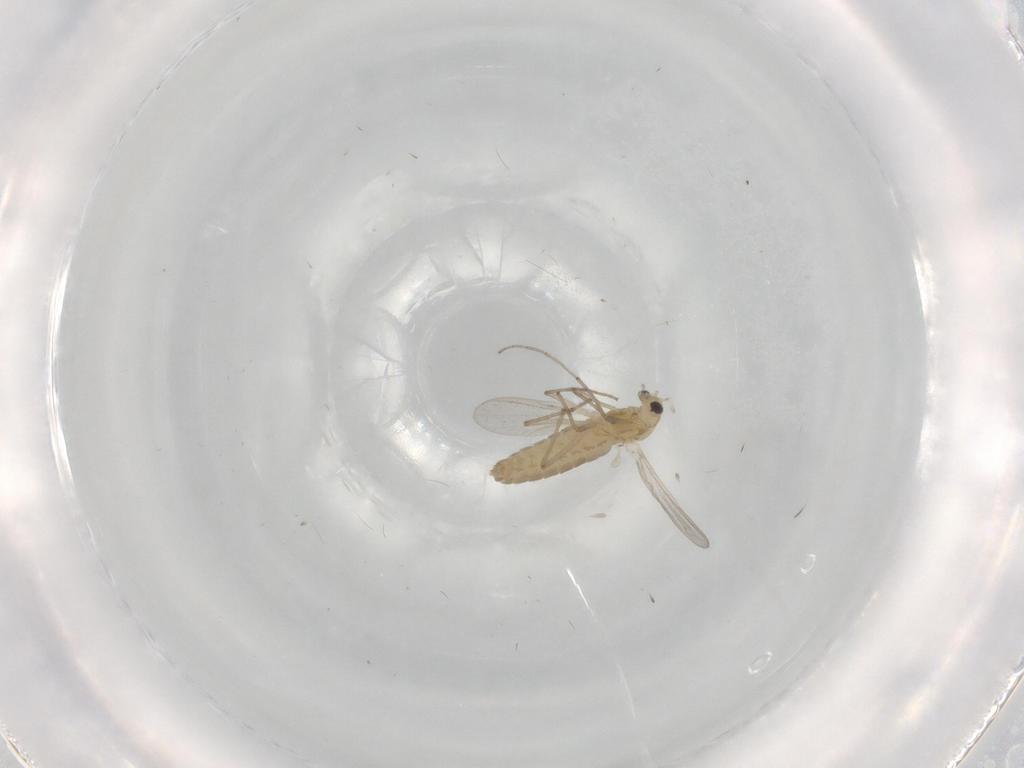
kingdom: Animalia
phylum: Arthropoda
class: Insecta
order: Diptera
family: Chironomidae
